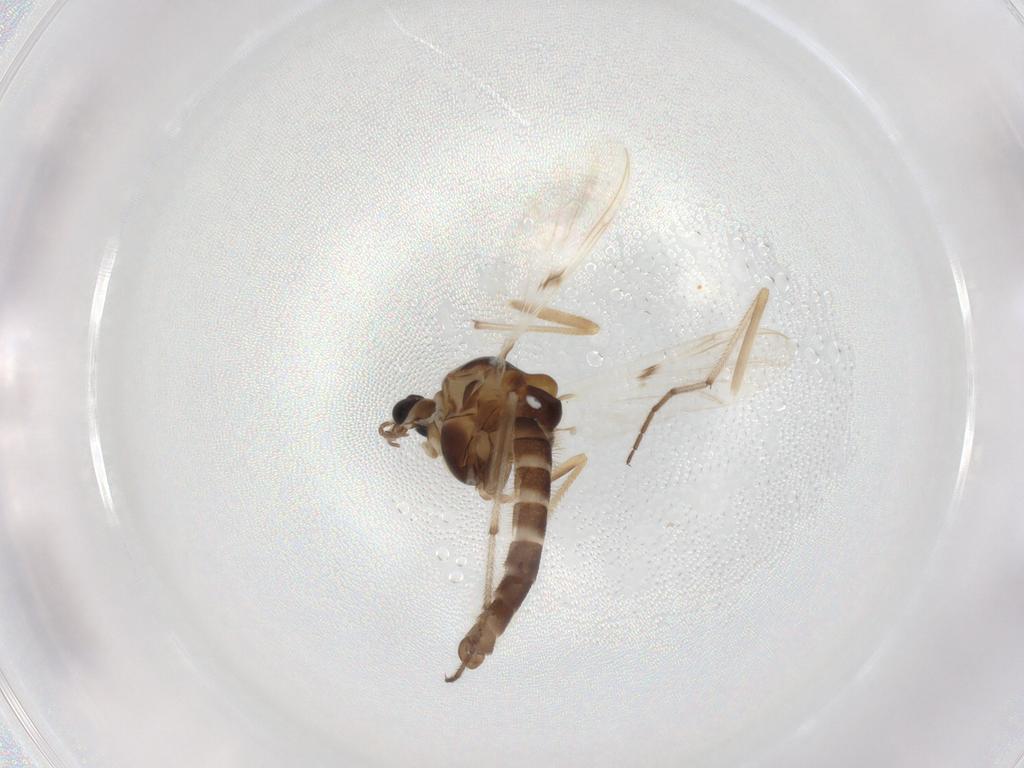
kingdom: Animalia
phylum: Arthropoda
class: Insecta
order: Diptera
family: Chironomidae
